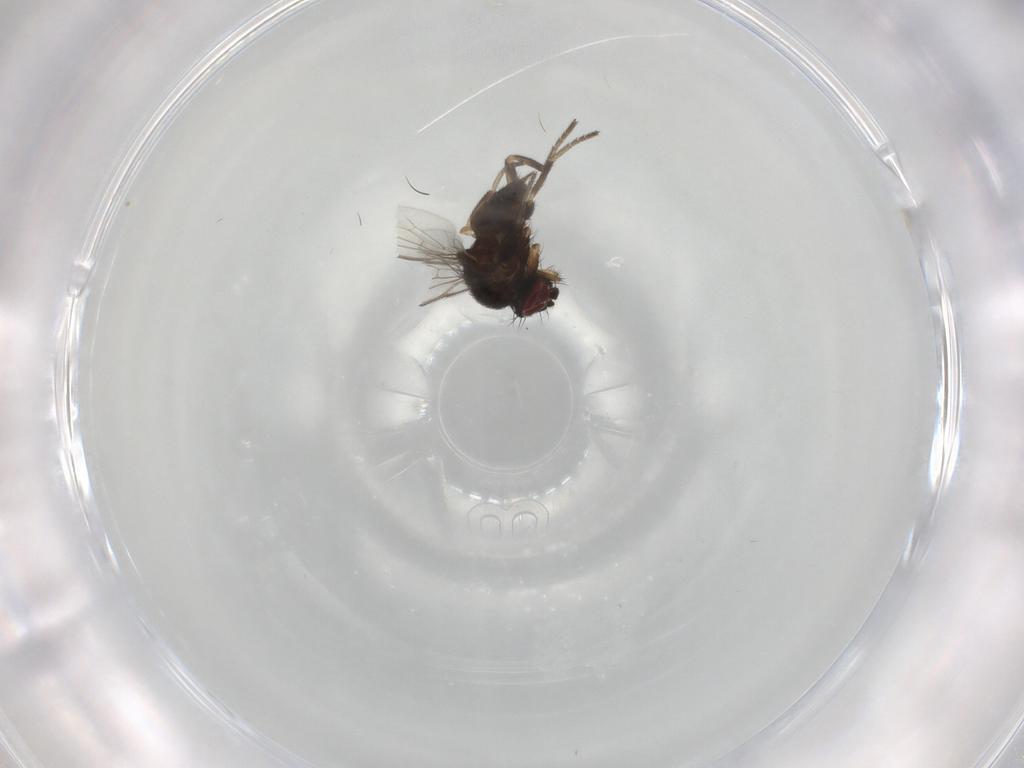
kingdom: Animalia
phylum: Arthropoda
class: Insecta
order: Diptera
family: Milichiidae
